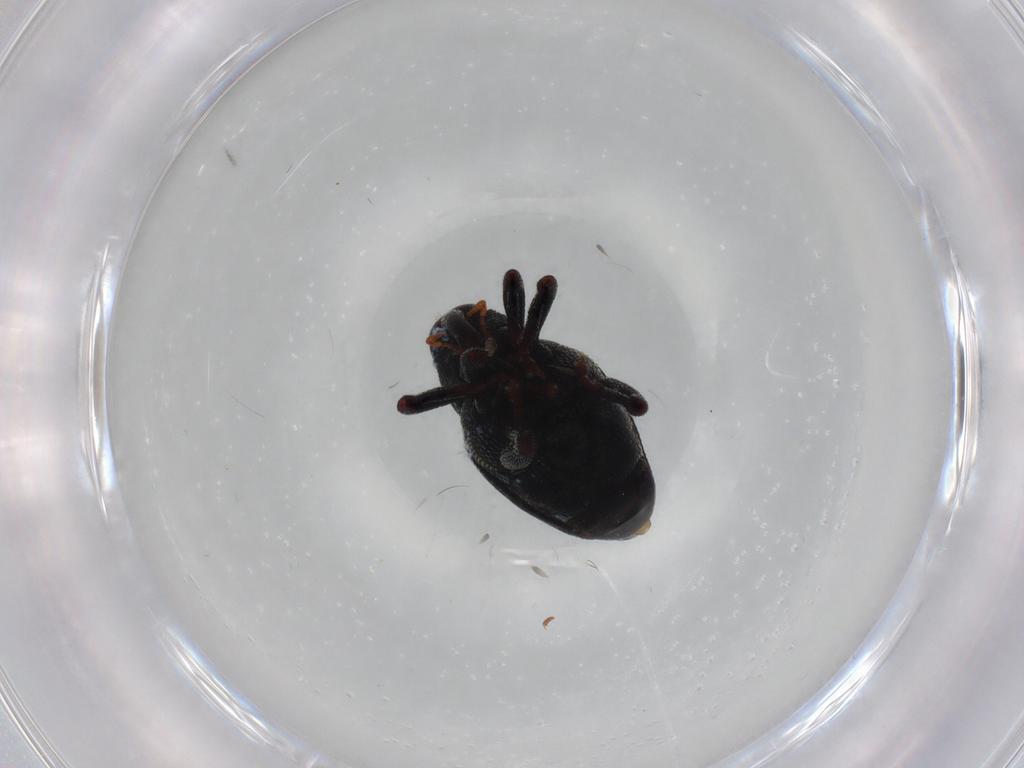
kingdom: Animalia
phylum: Arthropoda
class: Insecta
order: Coleoptera
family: Curculionidae
